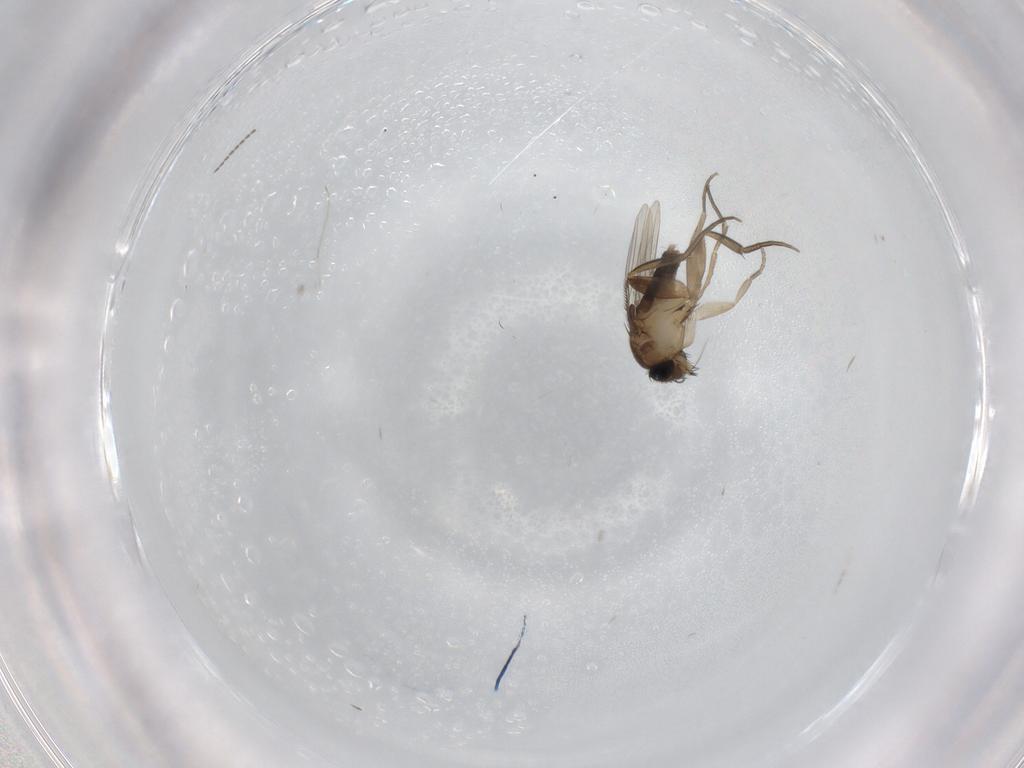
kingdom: Animalia
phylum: Arthropoda
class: Insecta
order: Diptera
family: Phoridae
